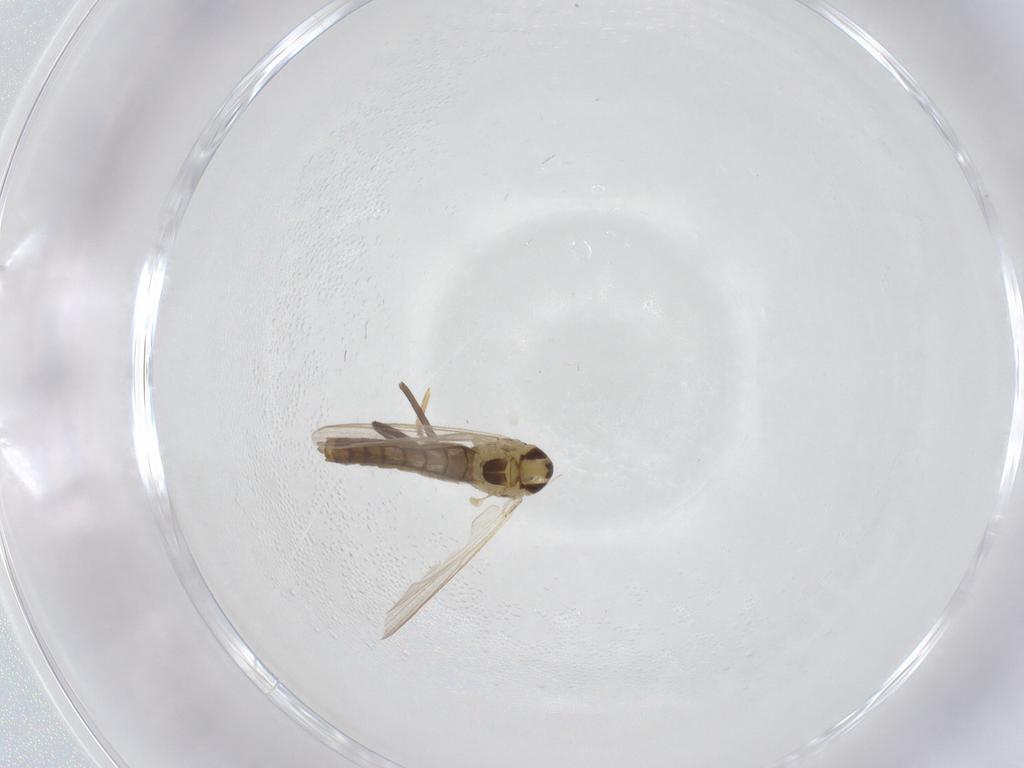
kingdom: Animalia
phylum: Arthropoda
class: Insecta
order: Diptera
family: Chironomidae
